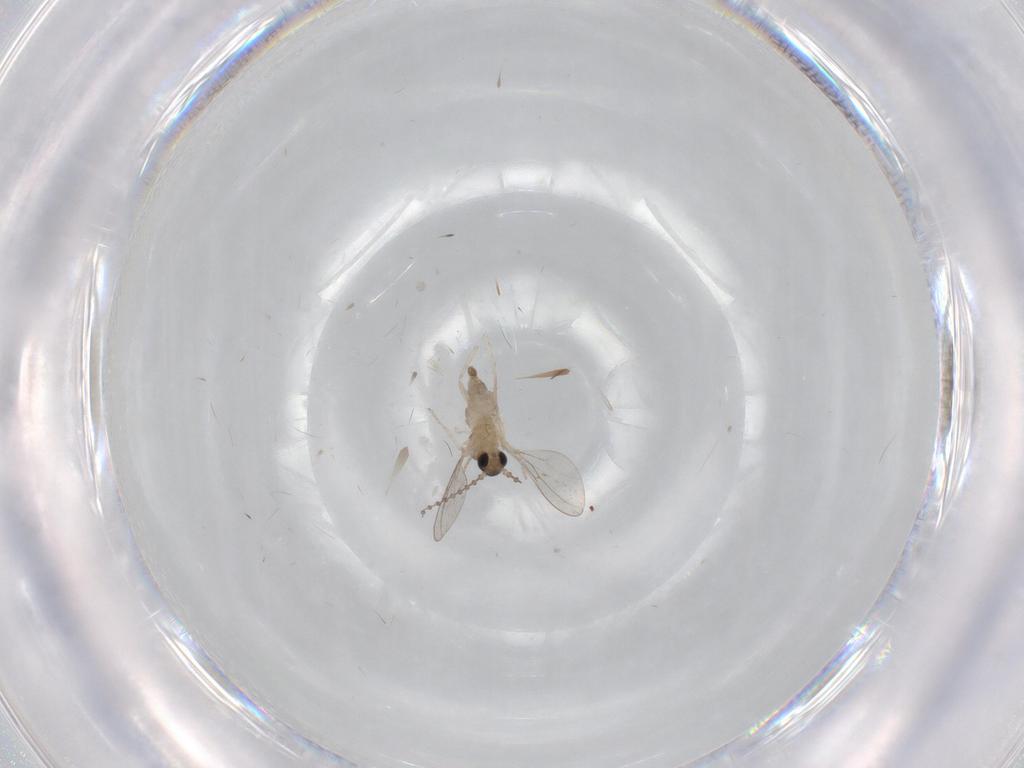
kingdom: Animalia
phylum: Arthropoda
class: Insecta
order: Diptera
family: Cecidomyiidae
